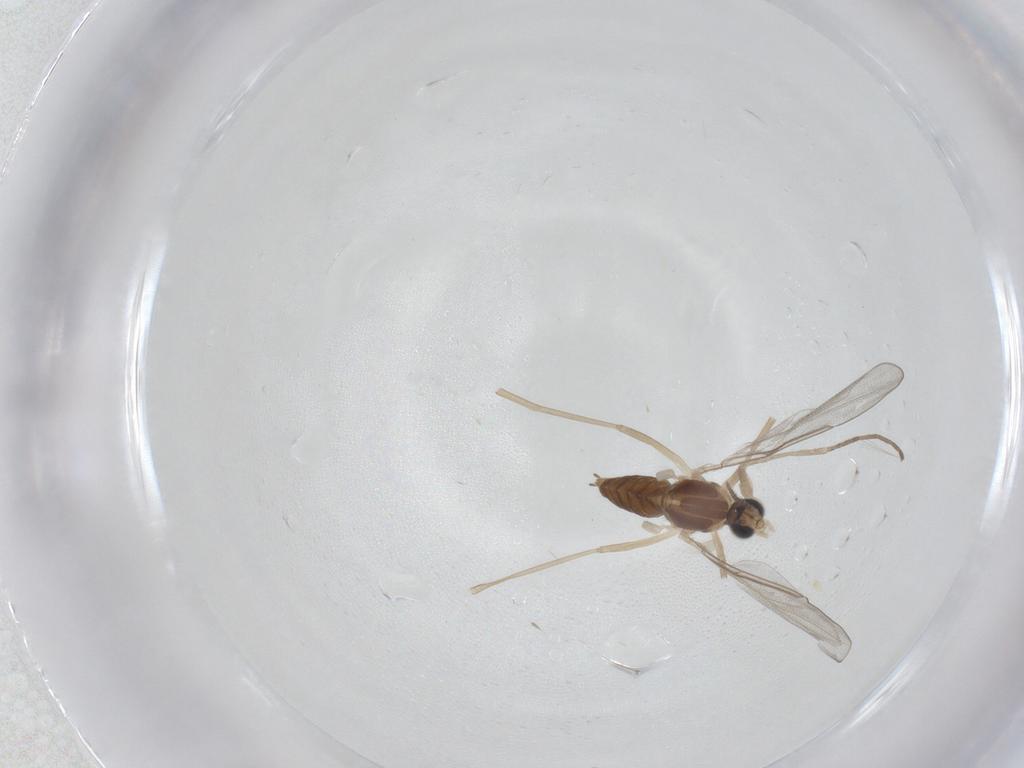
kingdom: Animalia
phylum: Arthropoda
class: Insecta
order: Diptera
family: Cecidomyiidae
